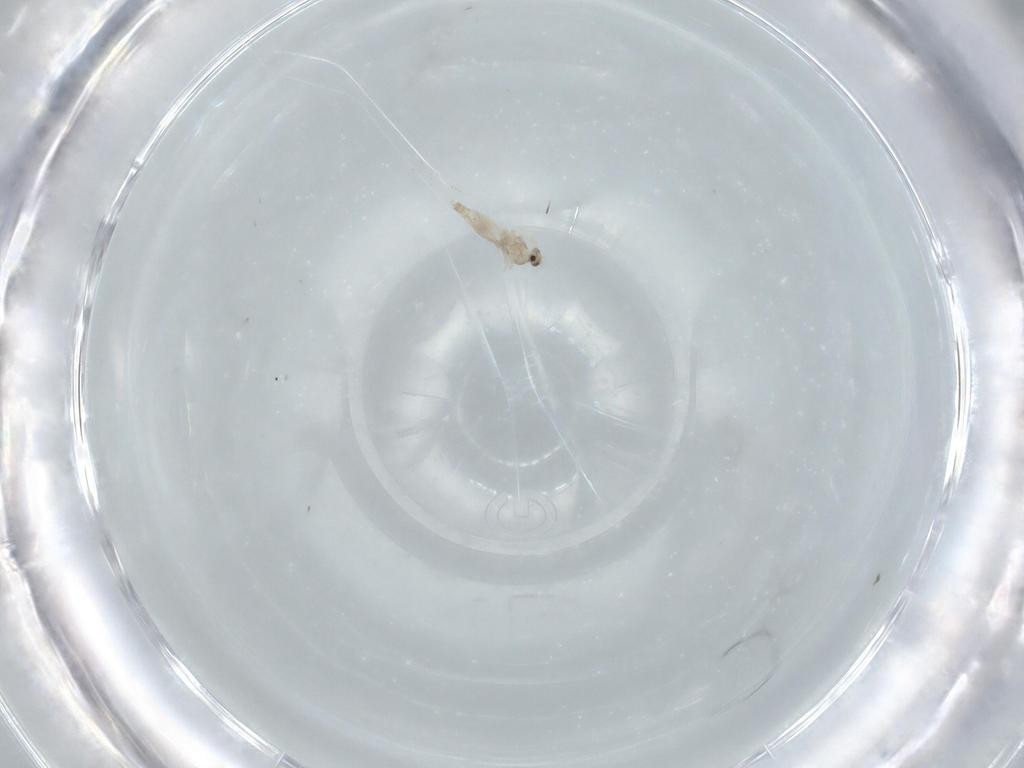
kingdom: Animalia
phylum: Arthropoda
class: Insecta
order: Diptera
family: Cecidomyiidae
